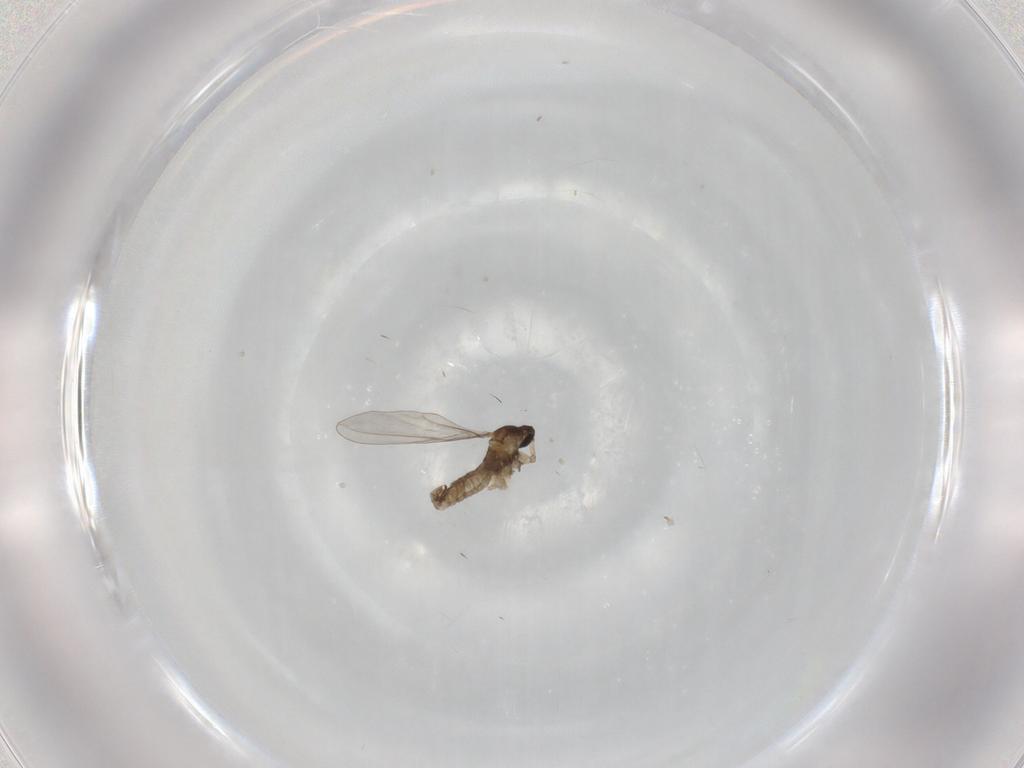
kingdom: Animalia
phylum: Arthropoda
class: Insecta
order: Diptera
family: Cecidomyiidae
